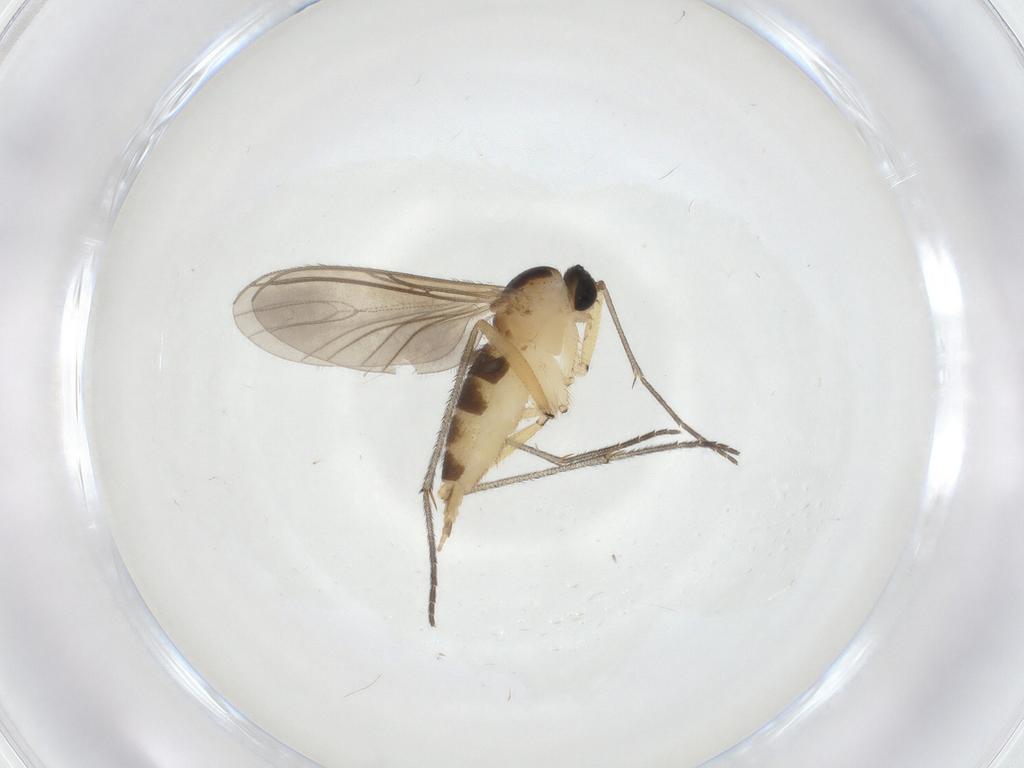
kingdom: Animalia
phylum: Arthropoda
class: Insecta
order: Diptera
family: Sciaridae
